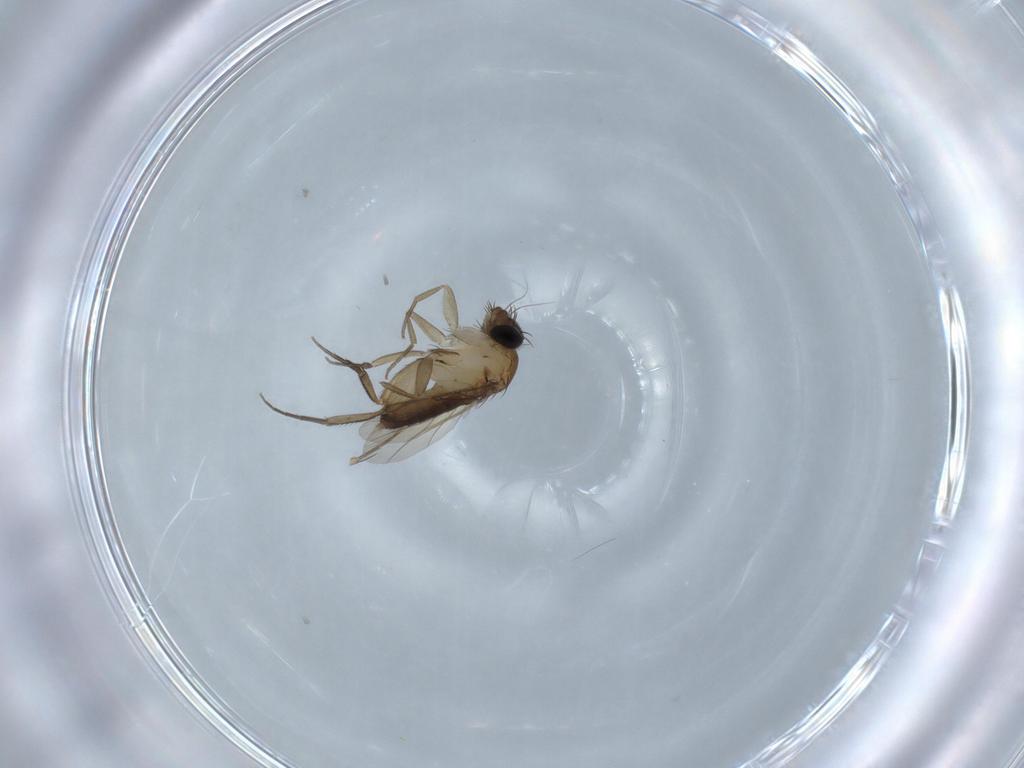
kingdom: Animalia
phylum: Arthropoda
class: Insecta
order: Diptera
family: Phoridae
